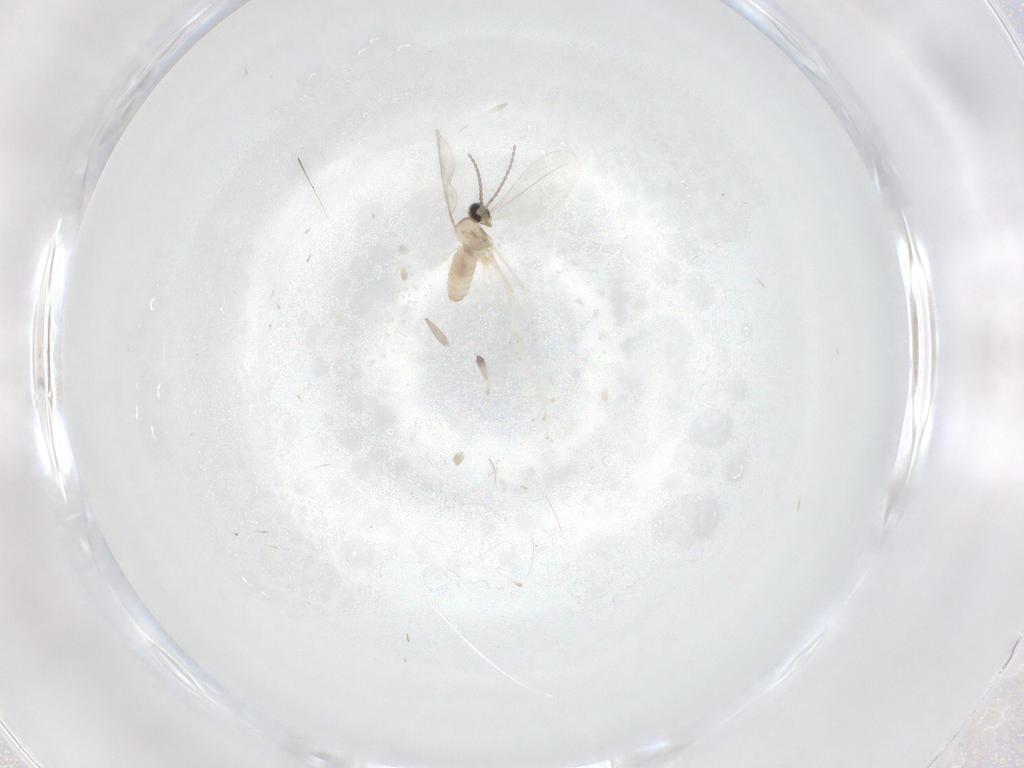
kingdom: Animalia
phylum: Arthropoda
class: Insecta
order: Diptera
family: Cecidomyiidae
